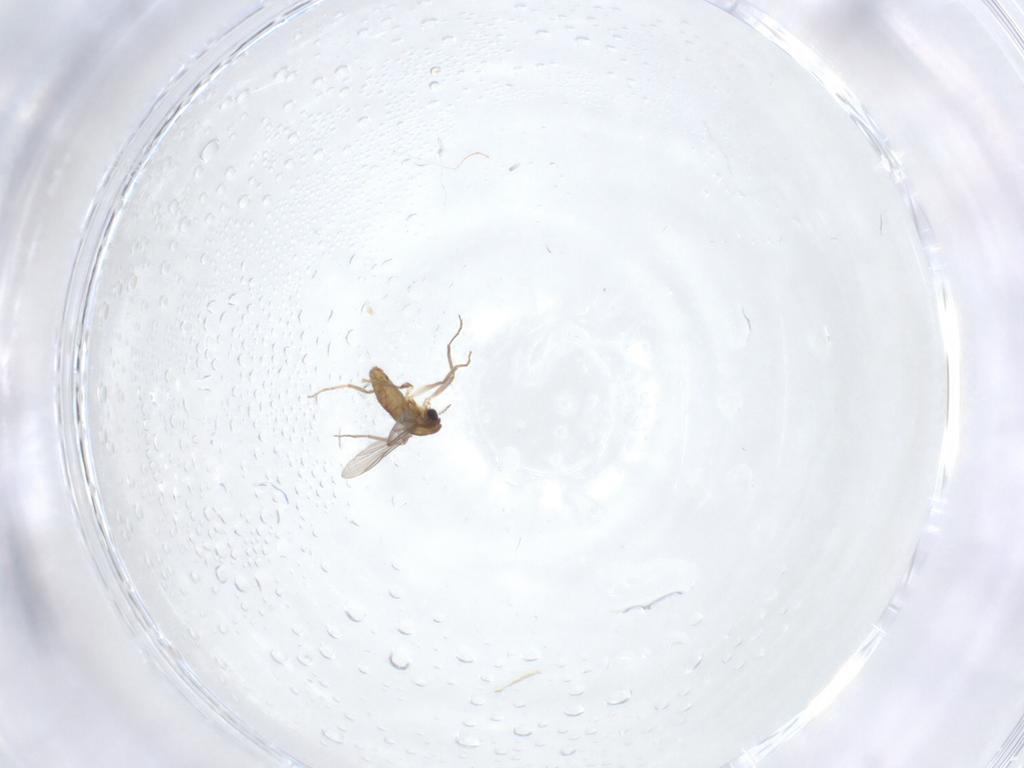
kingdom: Animalia
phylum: Arthropoda
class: Insecta
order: Diptera
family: Chironomidae
